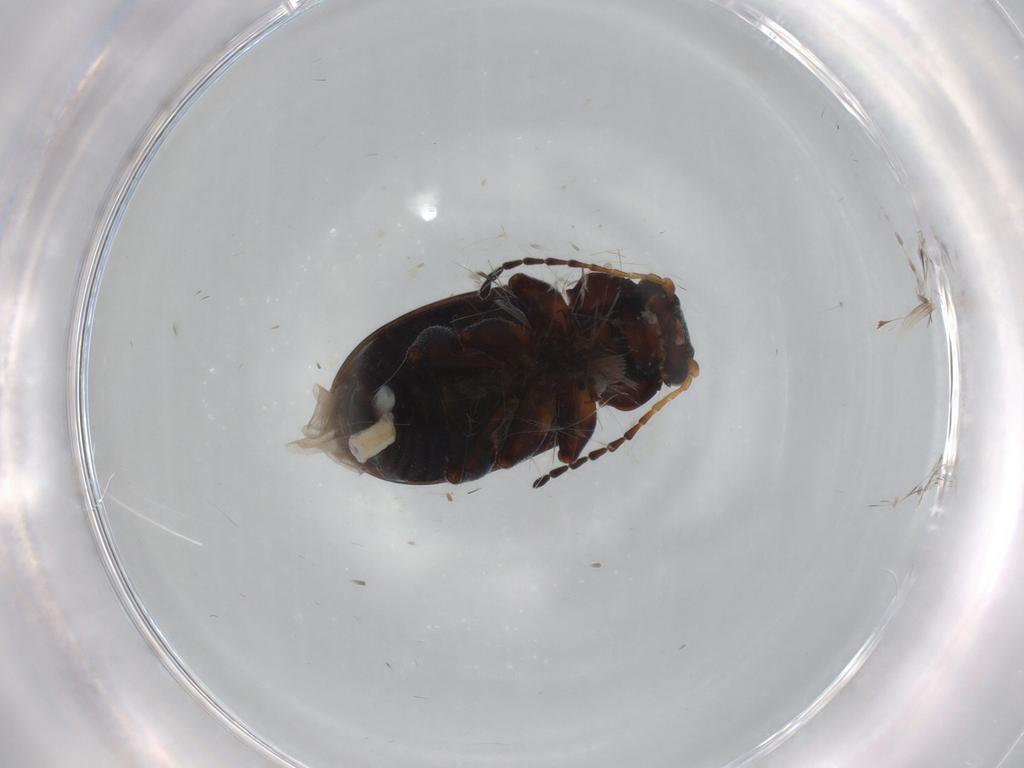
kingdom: Animalia
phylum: Arthropoda
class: Insecta
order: Coleoptera
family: Chrysomelidae
